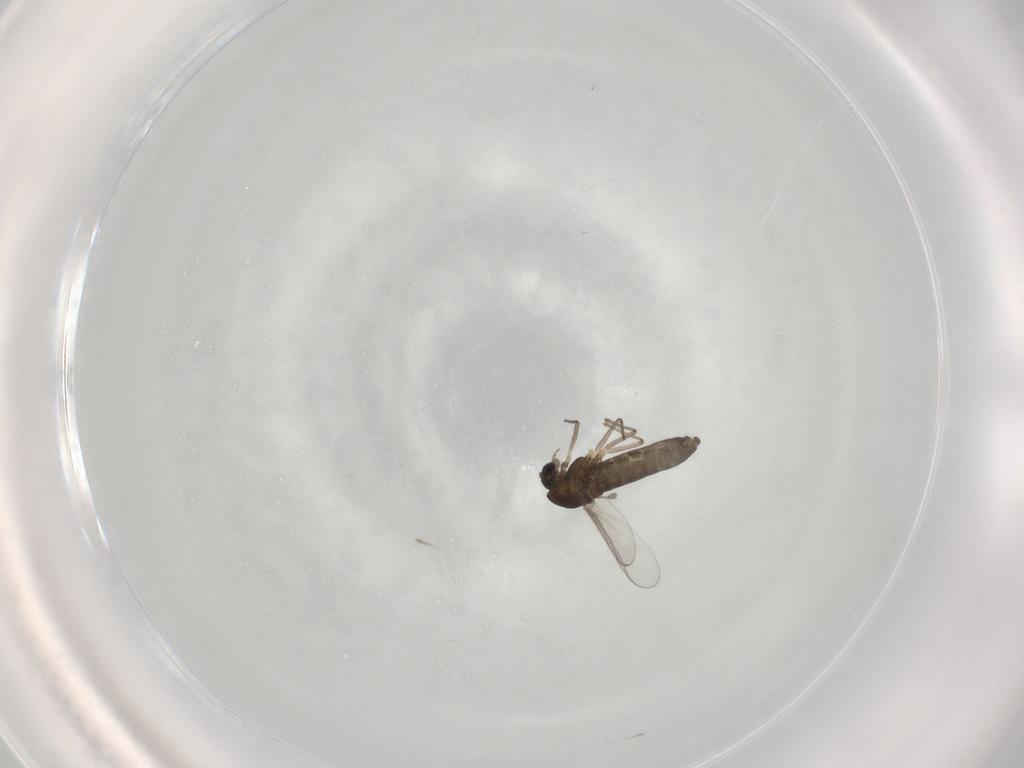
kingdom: Animalia
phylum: Arthropoda
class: Insecta
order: Diptera
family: Chironomidae
